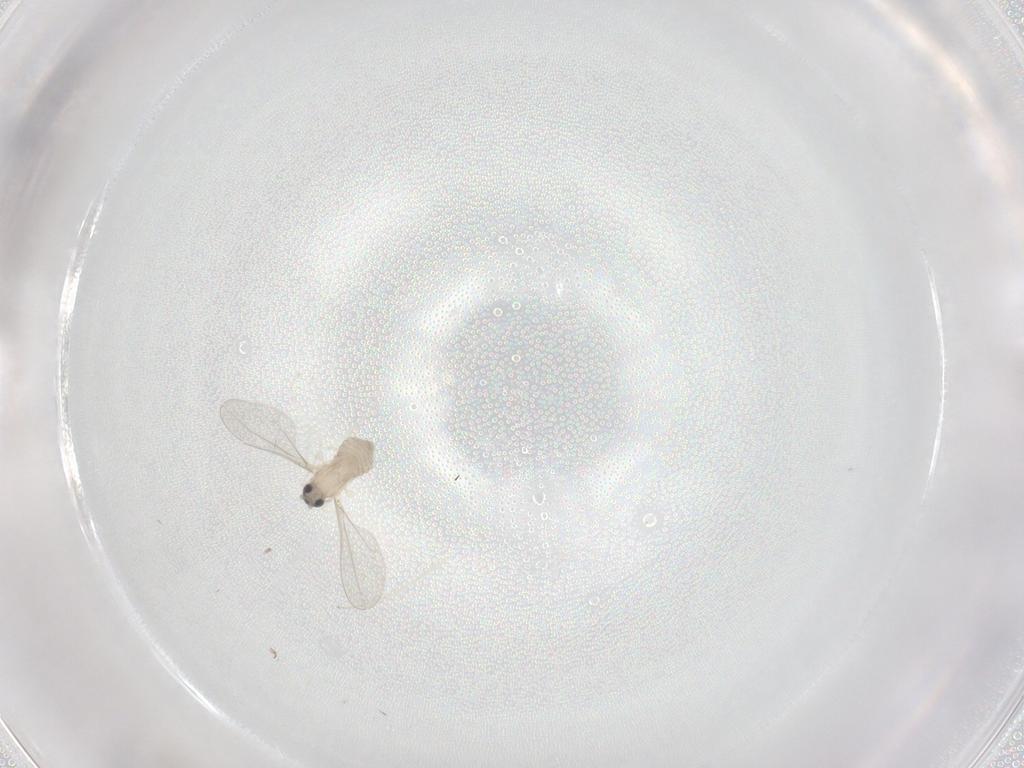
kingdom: Animalia
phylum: Arthropoda
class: Insecta
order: Diptera
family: Cecidomyiidae
